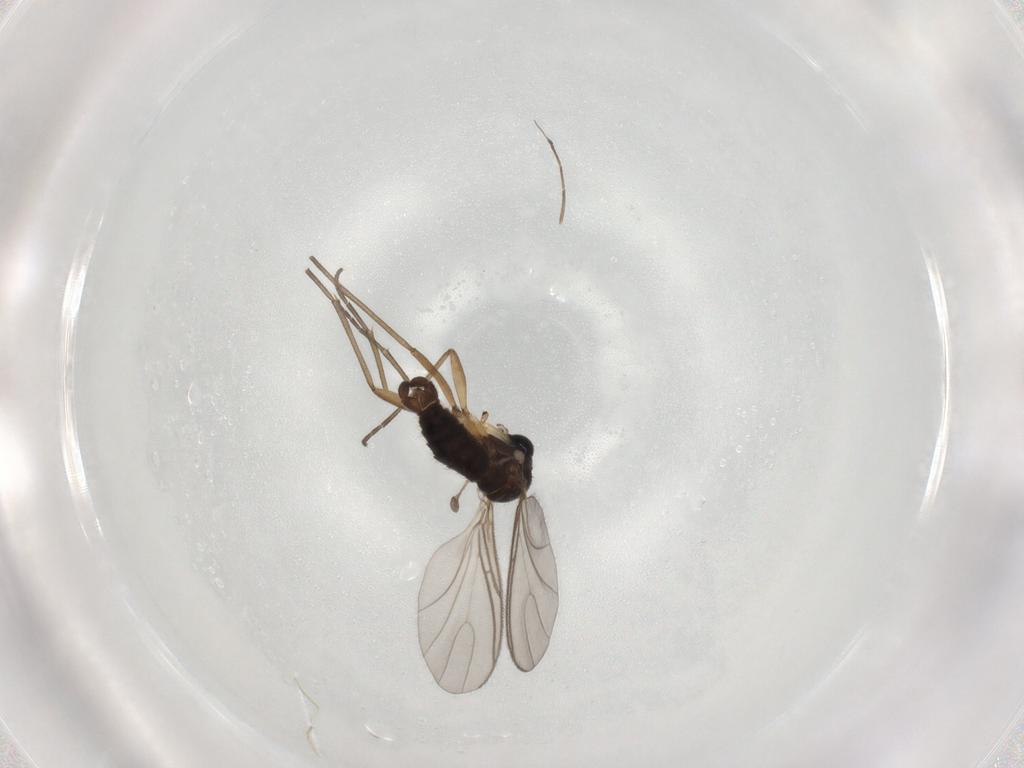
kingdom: Animalia
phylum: Arthropoda
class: Insecta
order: Diptera
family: Sciaridae
